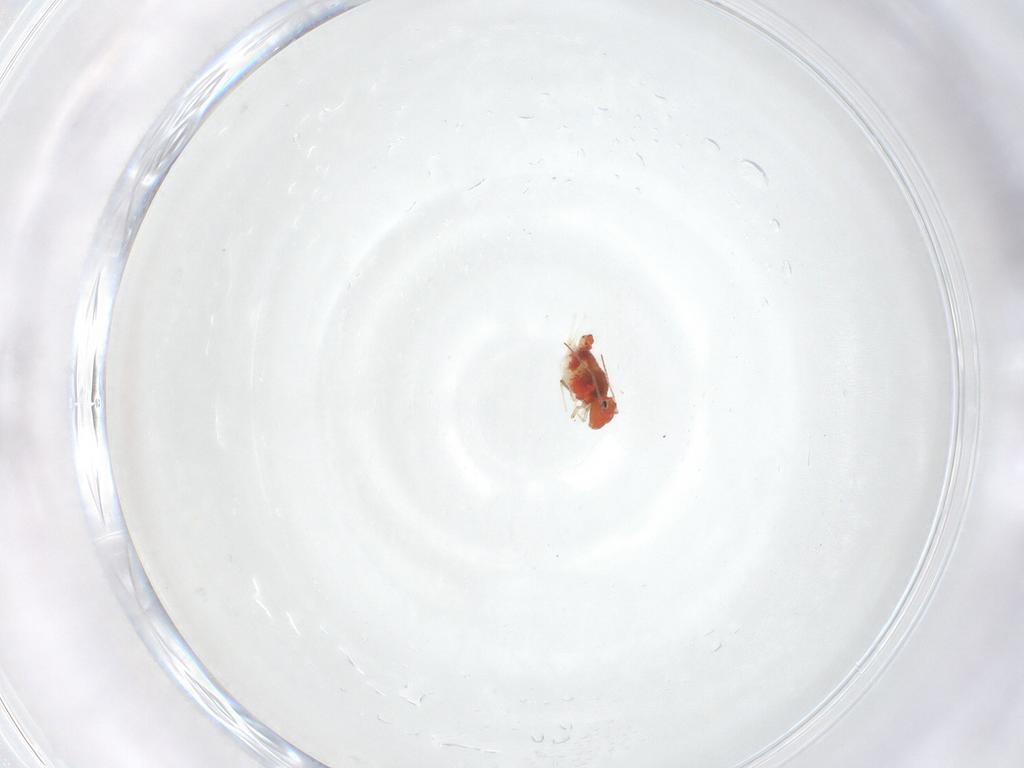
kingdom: Animalia
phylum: Arthropoda
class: Collembola
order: Symphypleona
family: Bourletiellidae
